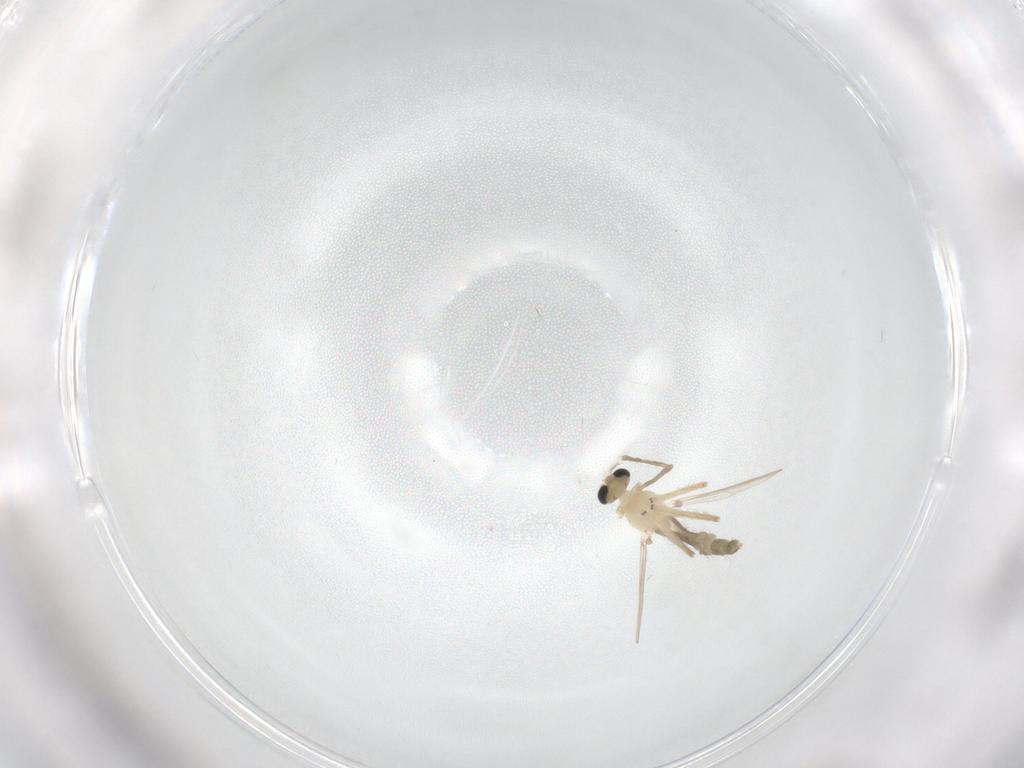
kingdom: Animalia
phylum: Arthropoda
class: Insecta
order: Diptera
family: Chironomidae
